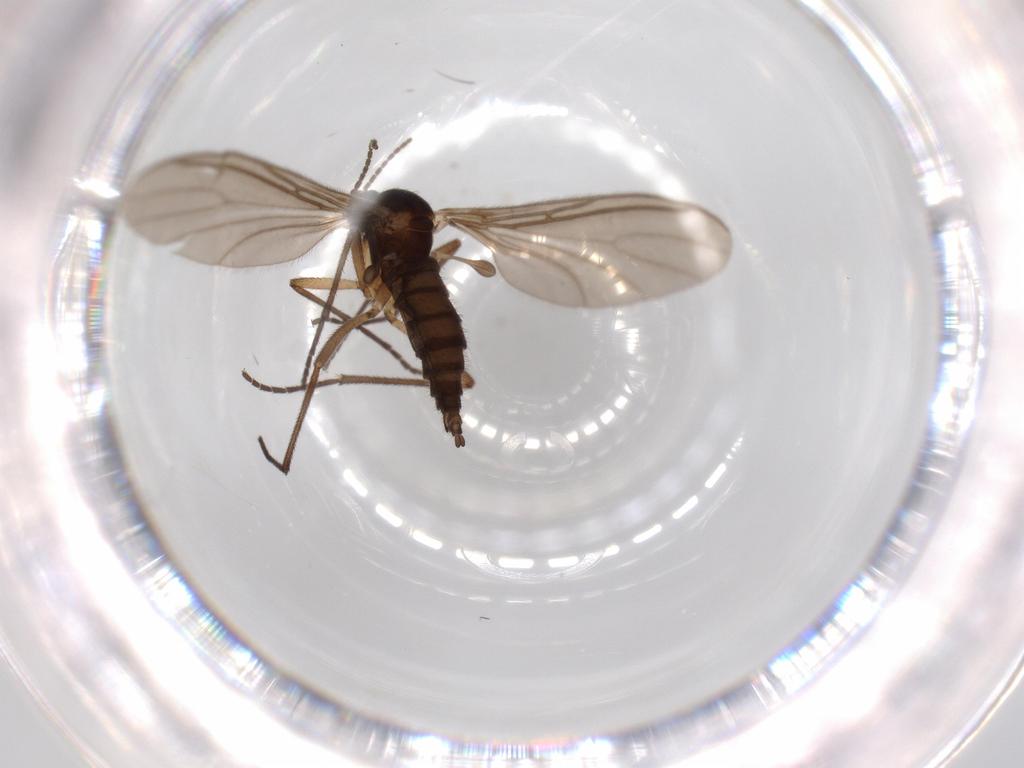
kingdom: Animalia
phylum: Arthropoda
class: Insecta
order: Diptera
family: Sciaridae
